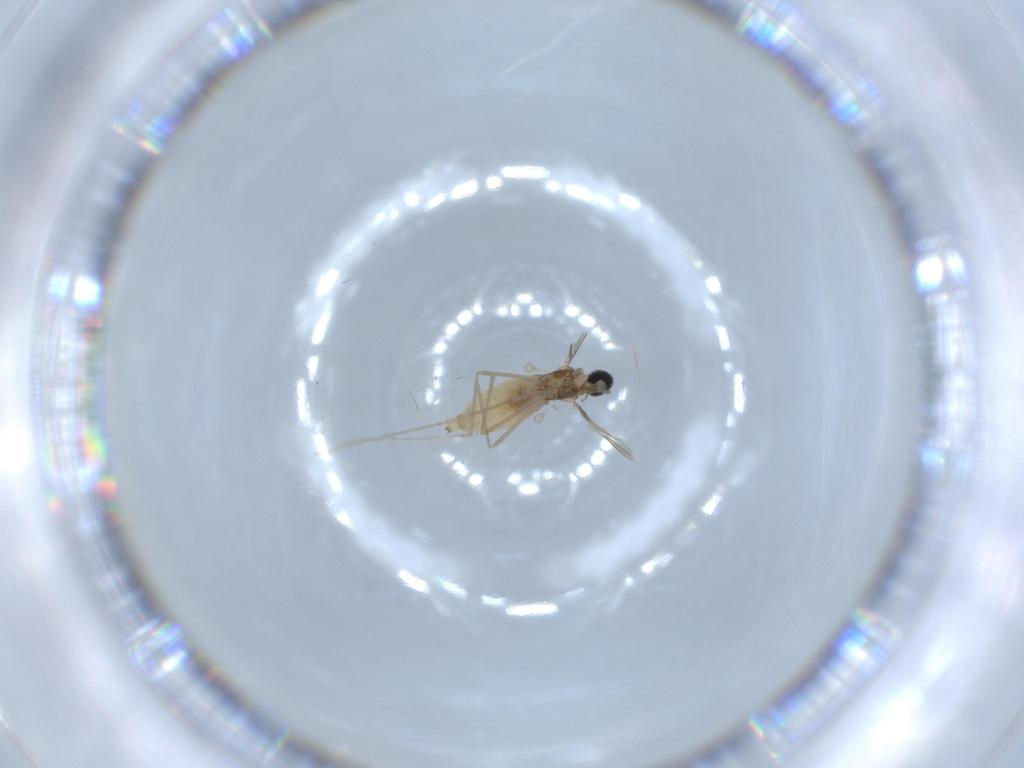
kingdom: Animalia
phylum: Arthropoda
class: Insecta
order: Diptera
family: Cecidomyiidae
